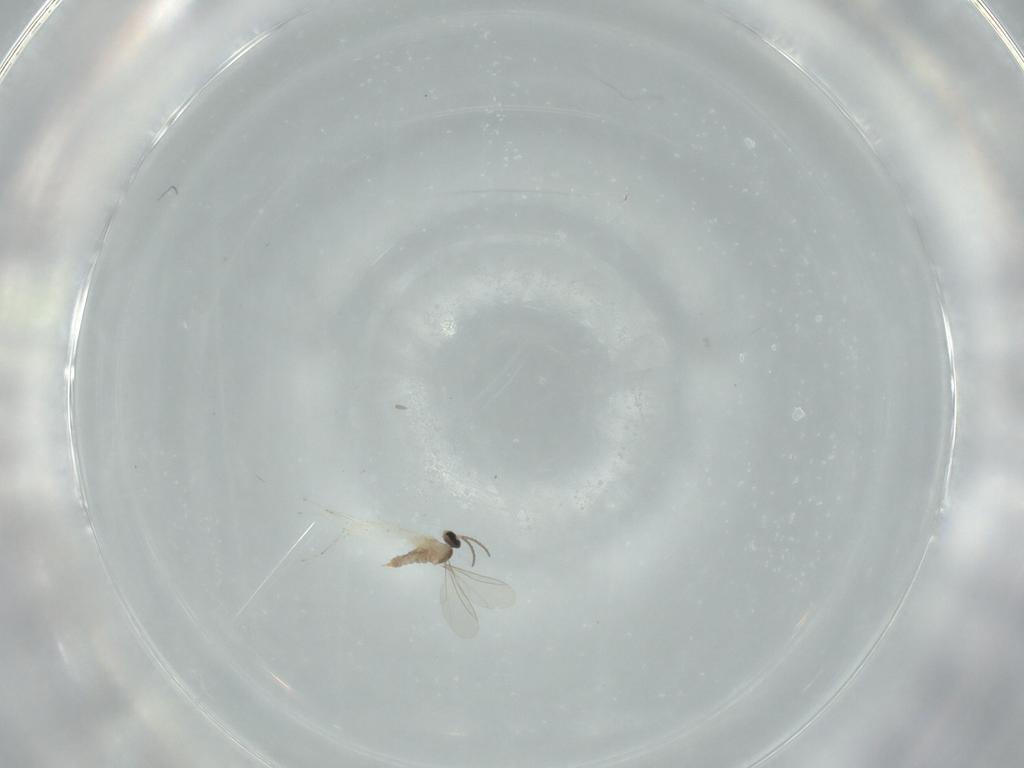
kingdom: Animalia
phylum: Arthropoda
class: Insecta
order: Diptera
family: Cecidomyiidae
